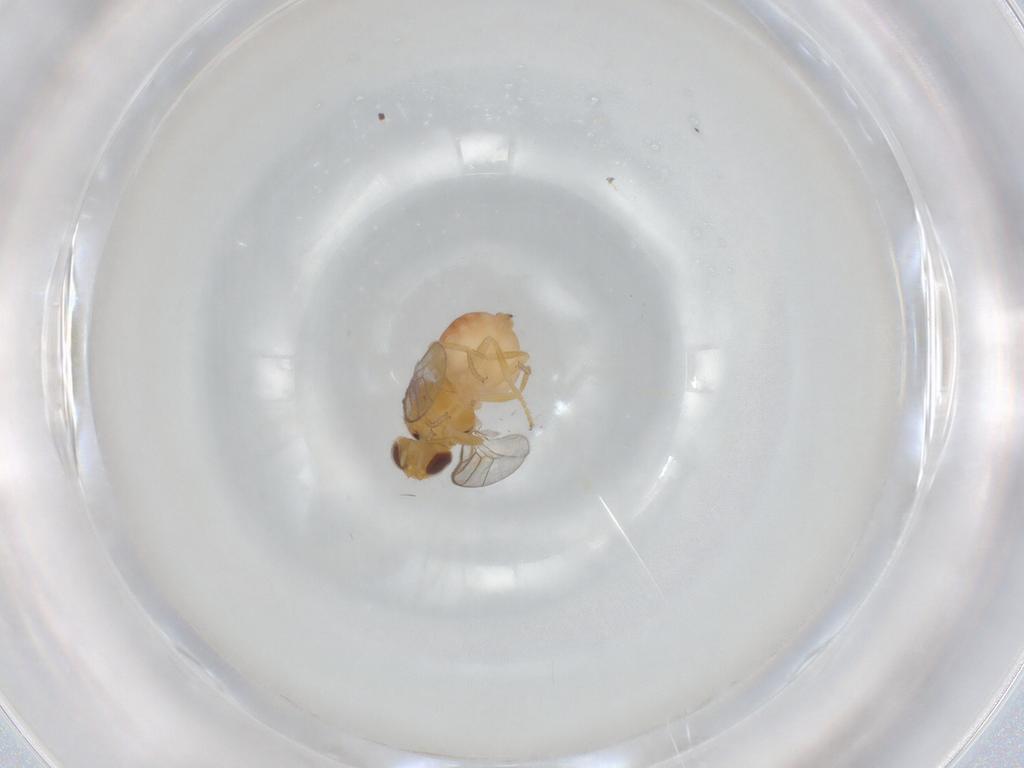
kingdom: Animalia
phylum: Arthropoda
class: Insecta
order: Diptera
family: Chloropidae
